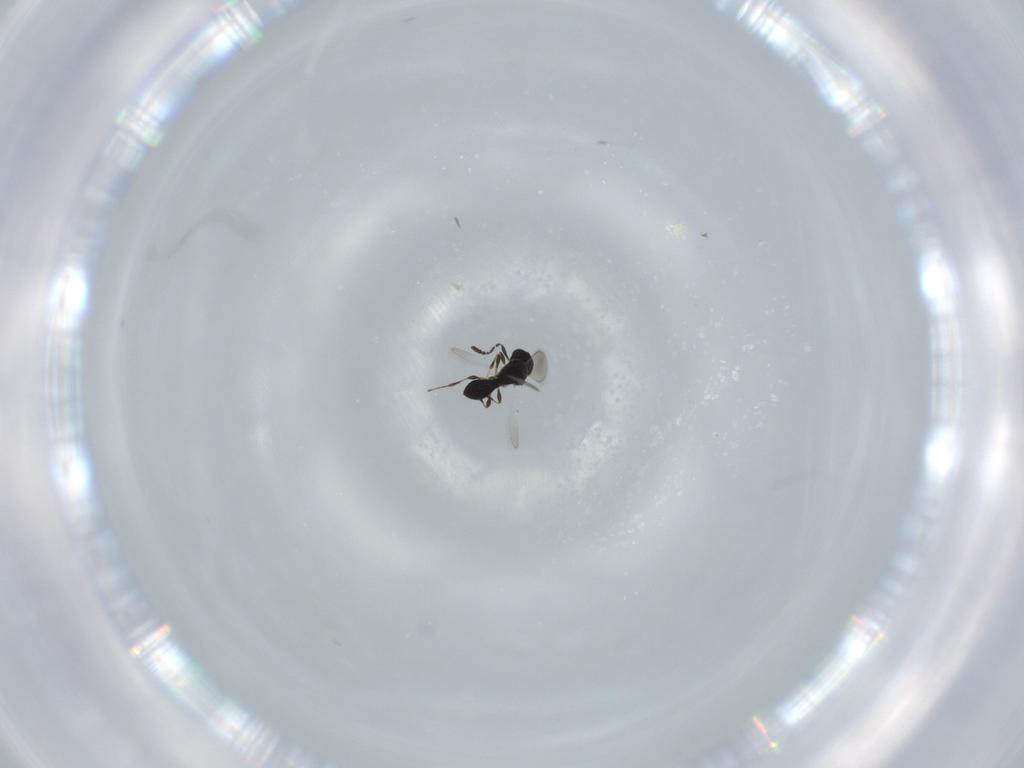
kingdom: Animalia
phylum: Arthropoda
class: Insecta
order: Hymenoptera
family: Platygastridae
